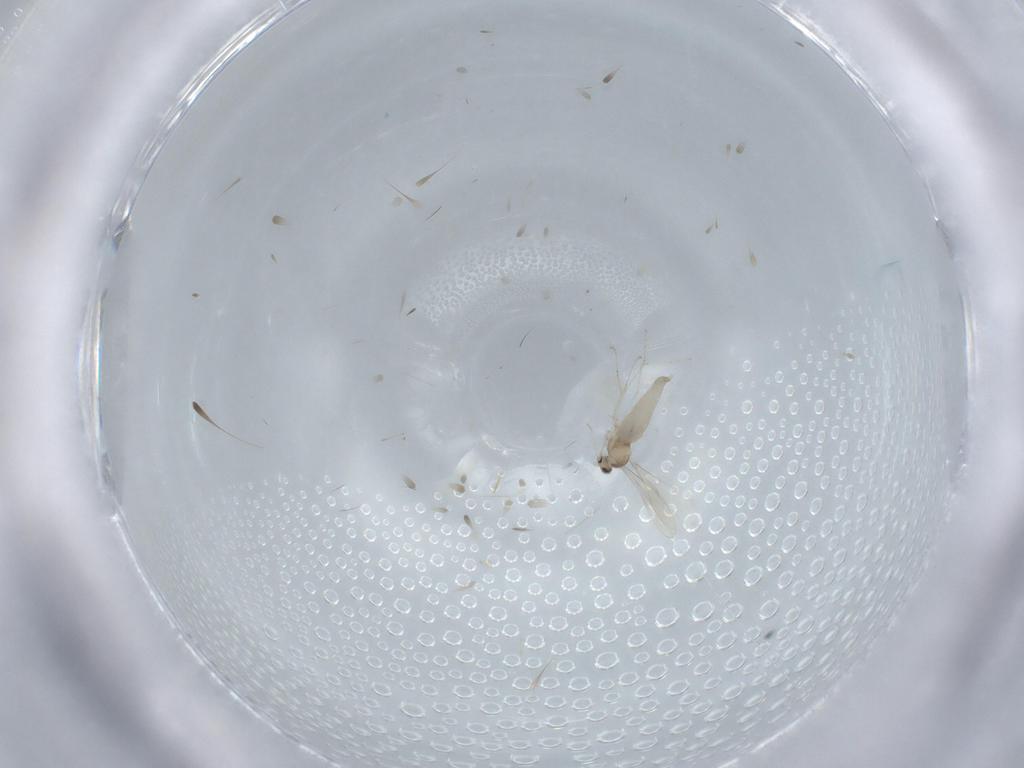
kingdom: Animalia
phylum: Arthropoda
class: Insecta
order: Diptera
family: Cecidomyiidae
